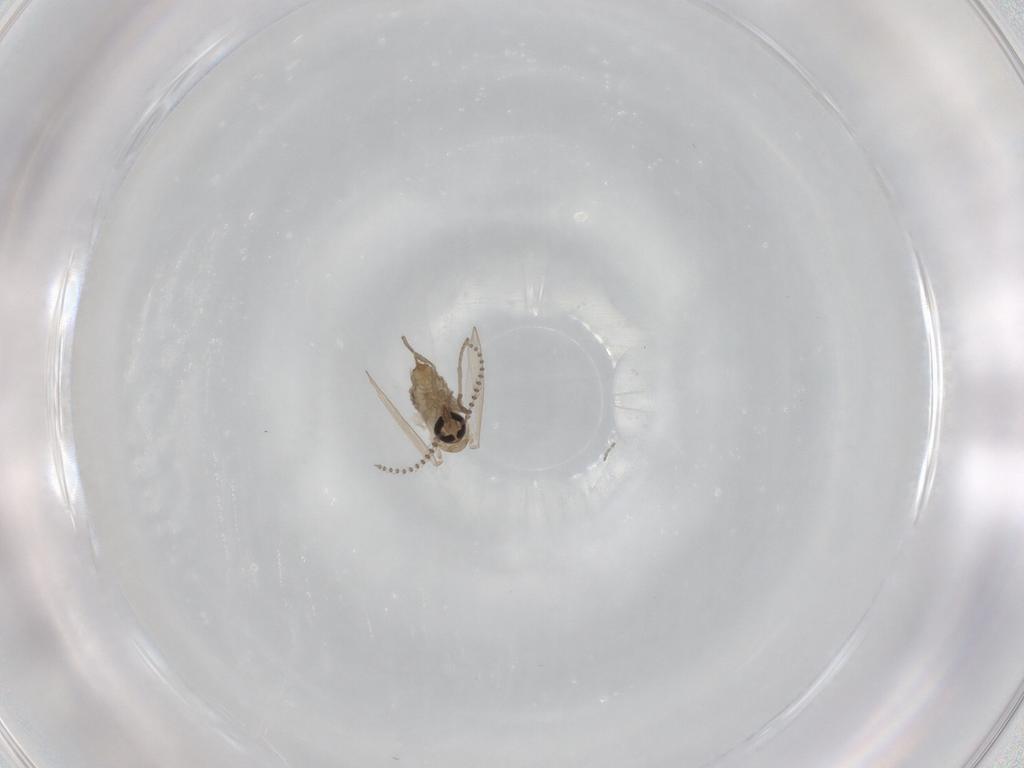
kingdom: Animalia
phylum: Arthropoda
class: Insecta
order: Diptera
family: Psychodidae
